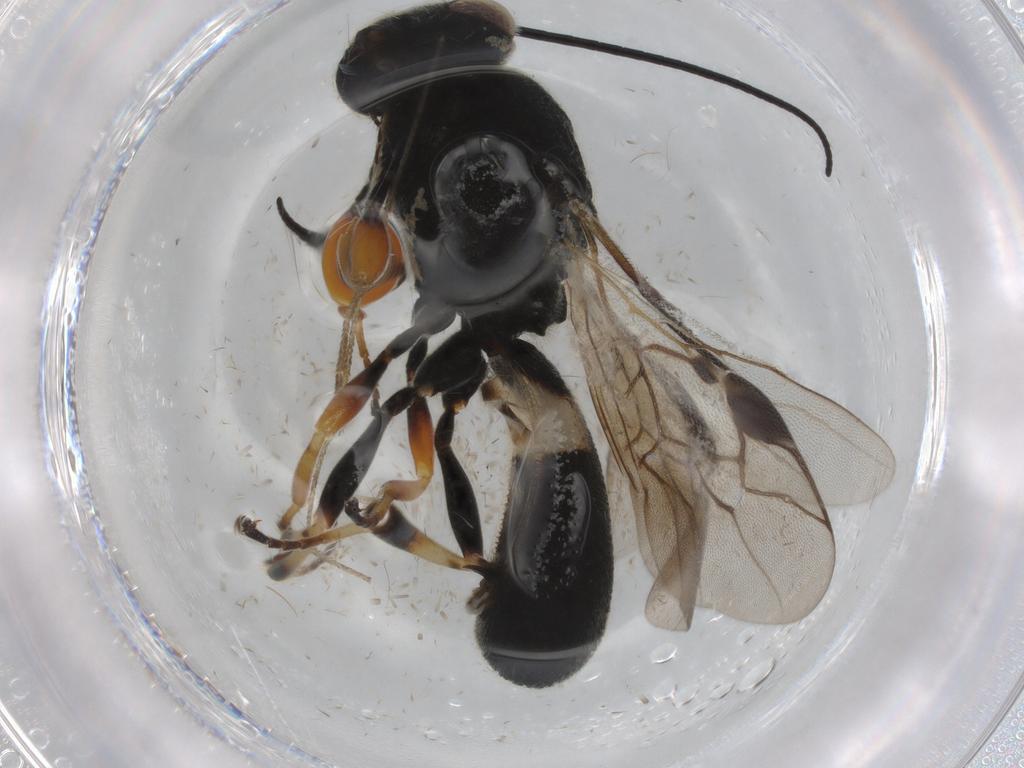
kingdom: Animalia
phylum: Arthropoda
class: Insecta
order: Hymenoptera
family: Braconidae
